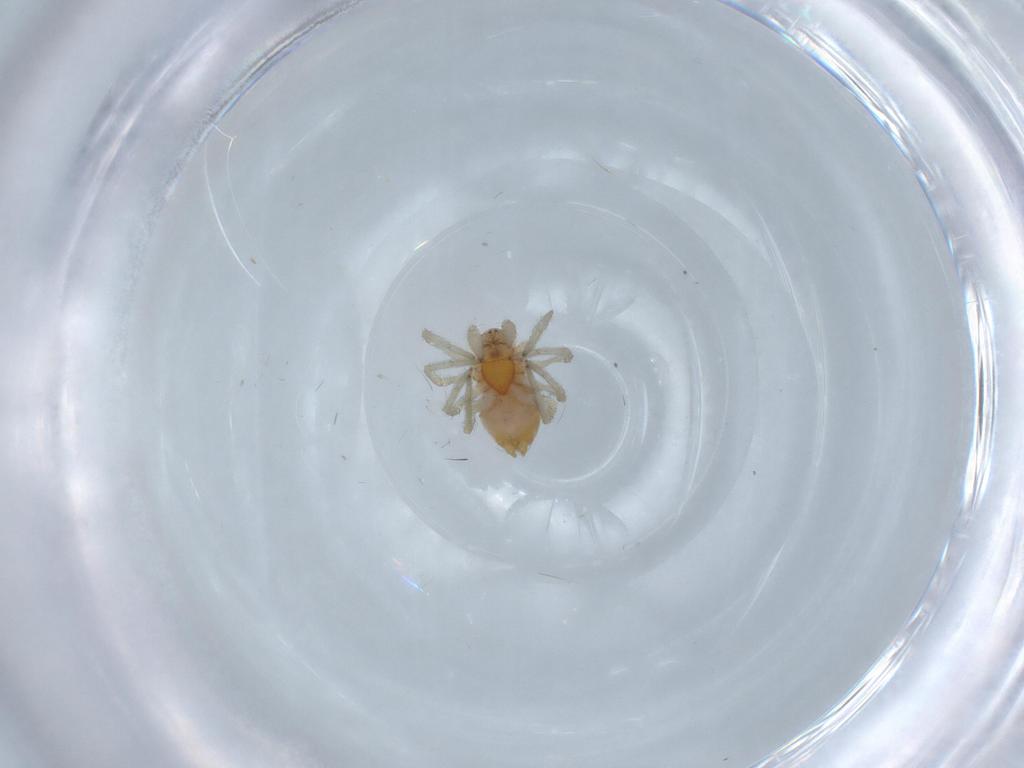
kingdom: Animalia
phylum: Arthropoda
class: Arachnida
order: Araneae
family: Dictynidae
